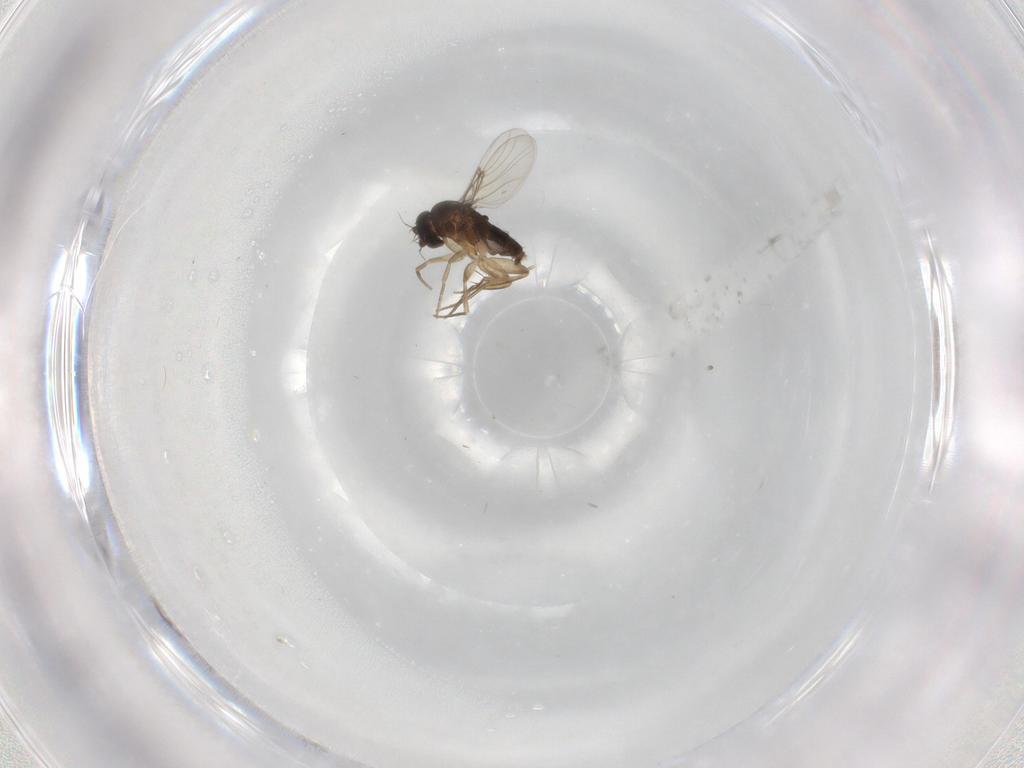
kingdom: Animalia
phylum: Arthropoda
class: Insecta
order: Diptera
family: Phoridae
